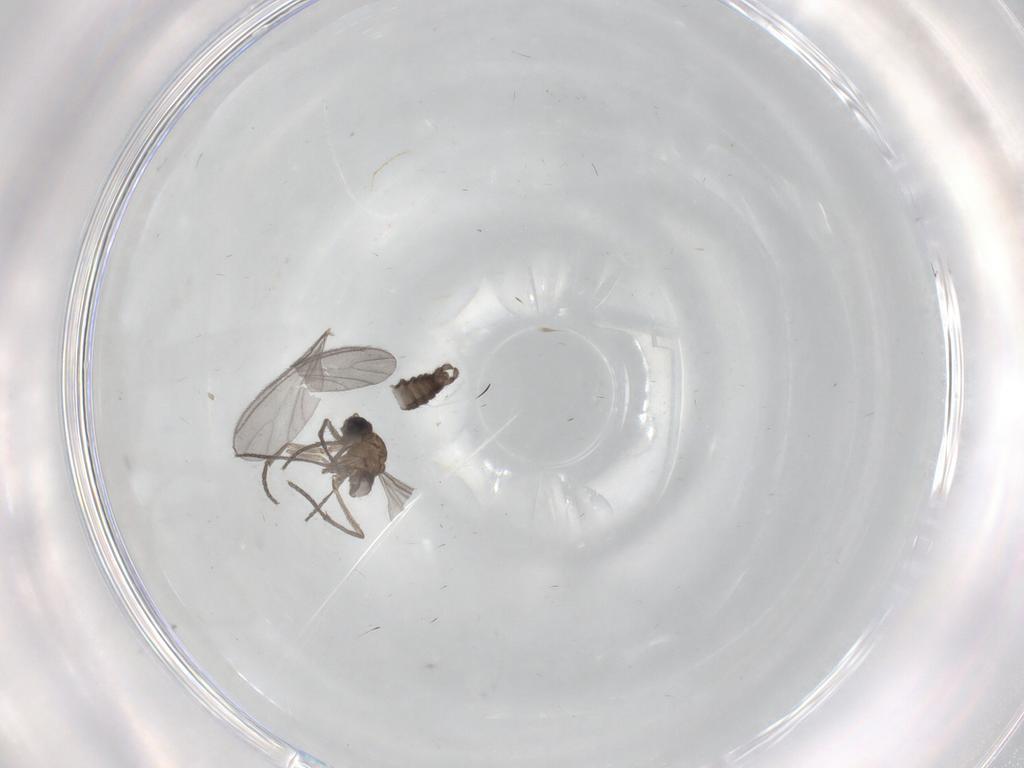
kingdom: Animalia
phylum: Arthropoda
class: Insecta
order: Diptera
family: Sciaridae
